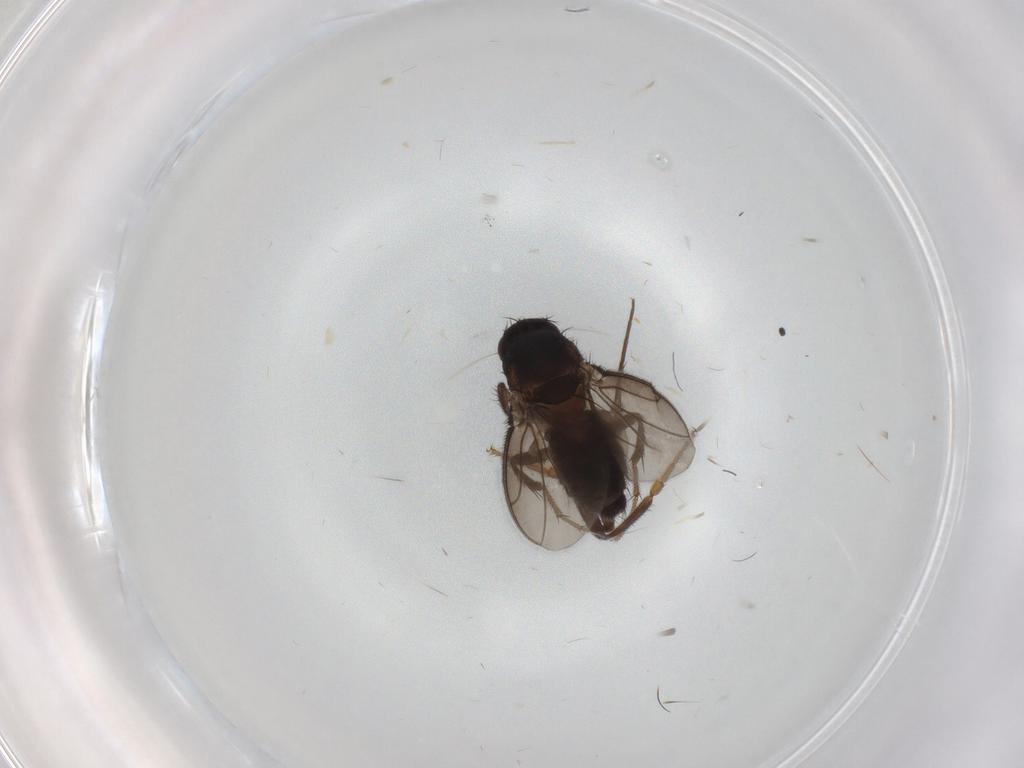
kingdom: Animalia
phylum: Arthropoda
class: Insecta
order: Diptera
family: Sphaeroceridae
